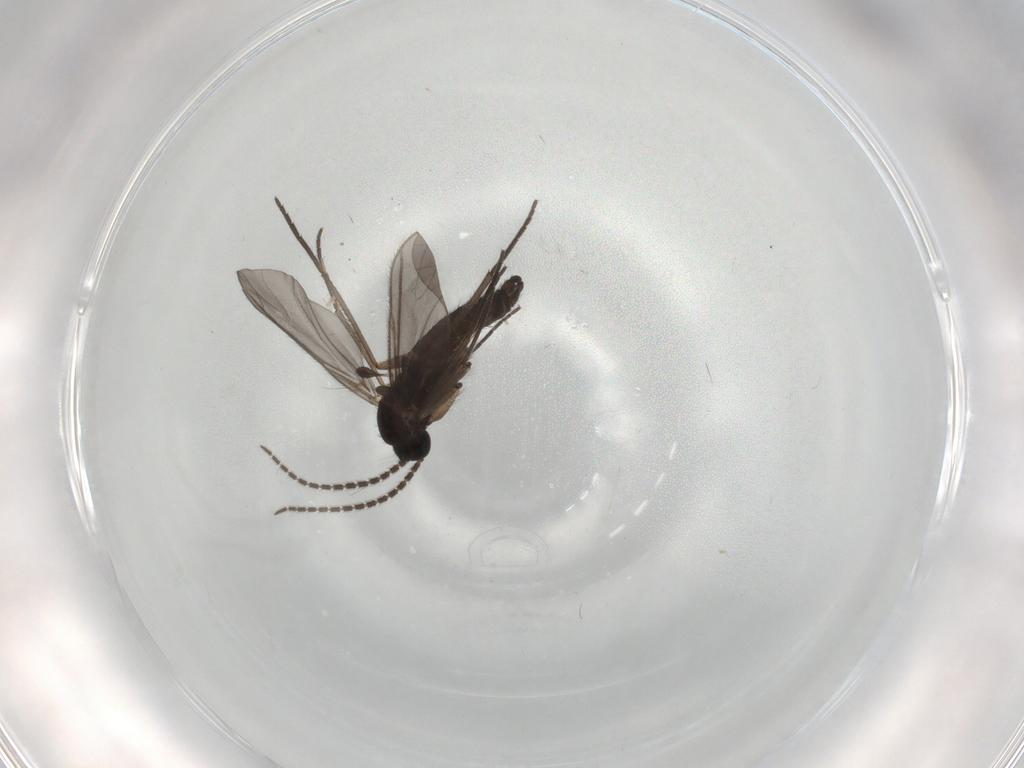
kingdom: Animalia
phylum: Arthropoda
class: Insecta
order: Diptera
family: Sciaridae
